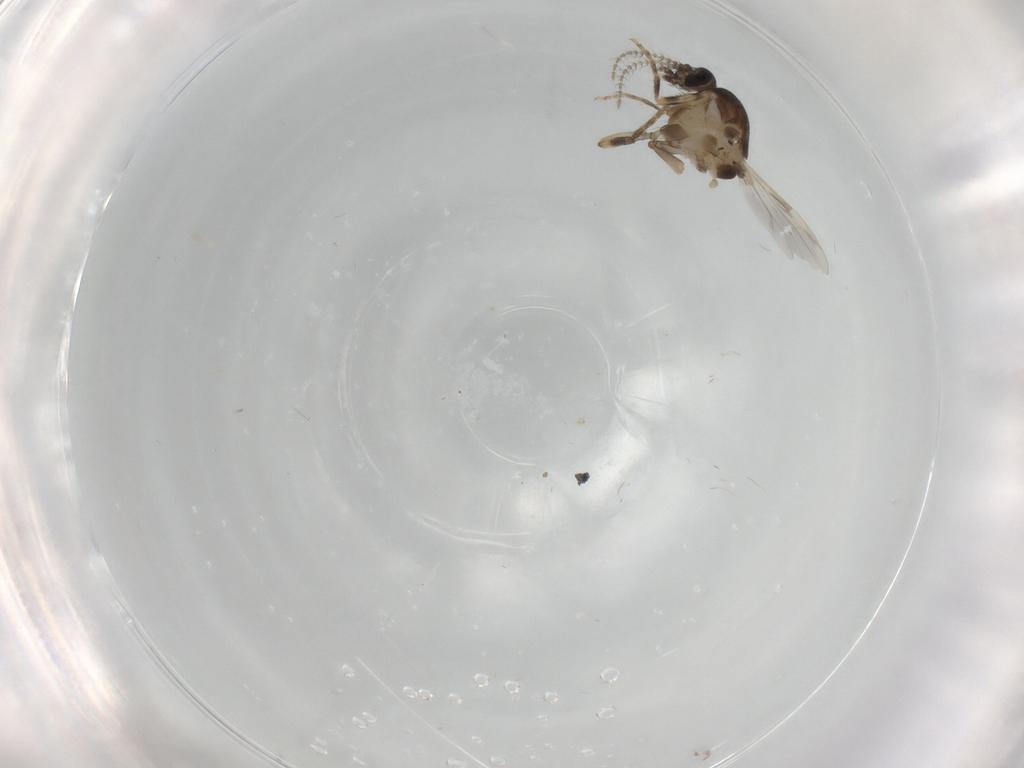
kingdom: Animalia
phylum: Arthropoda
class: Insecta
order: Diptera
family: Ceratopogonidae
